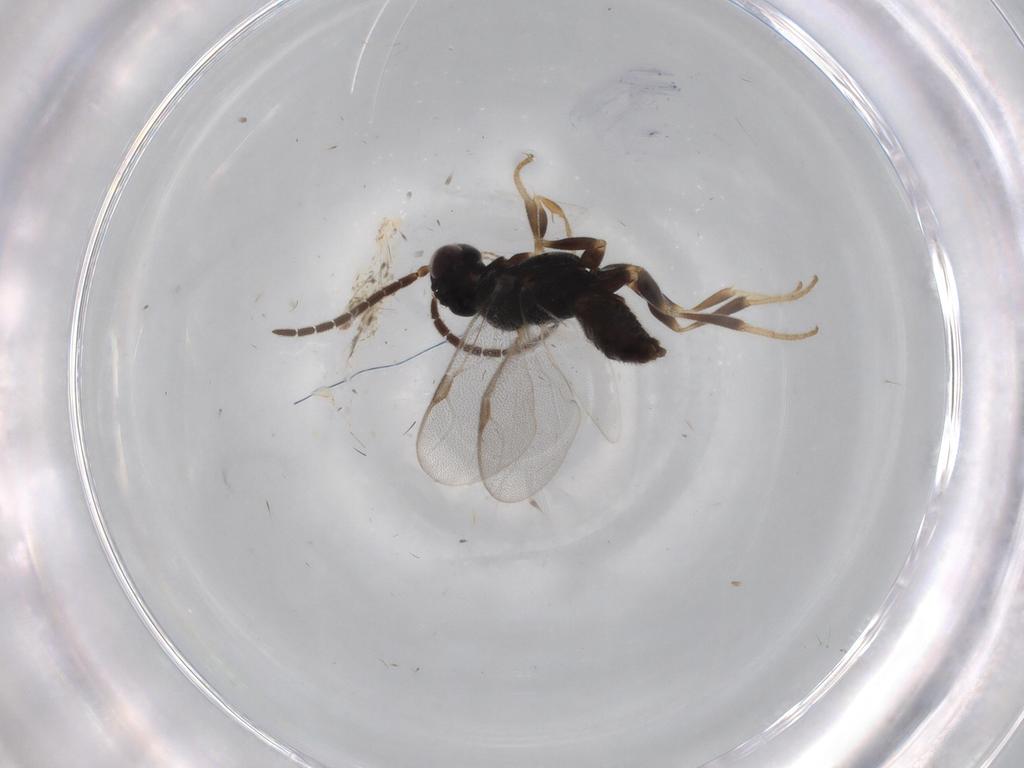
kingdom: Animalia
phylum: Arthropoda
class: Insecta
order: Hymenoptera
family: Dryinidae
